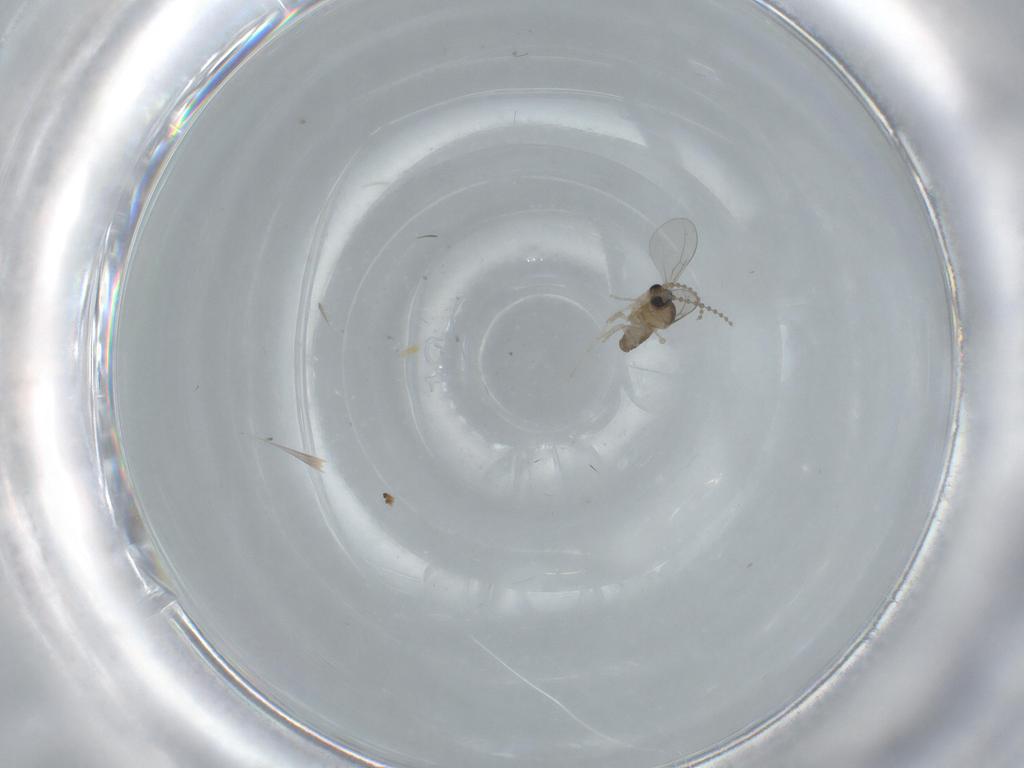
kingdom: Animalia
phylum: Arthropoda
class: Insecta
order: Diptera
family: Cecidomyiidae
